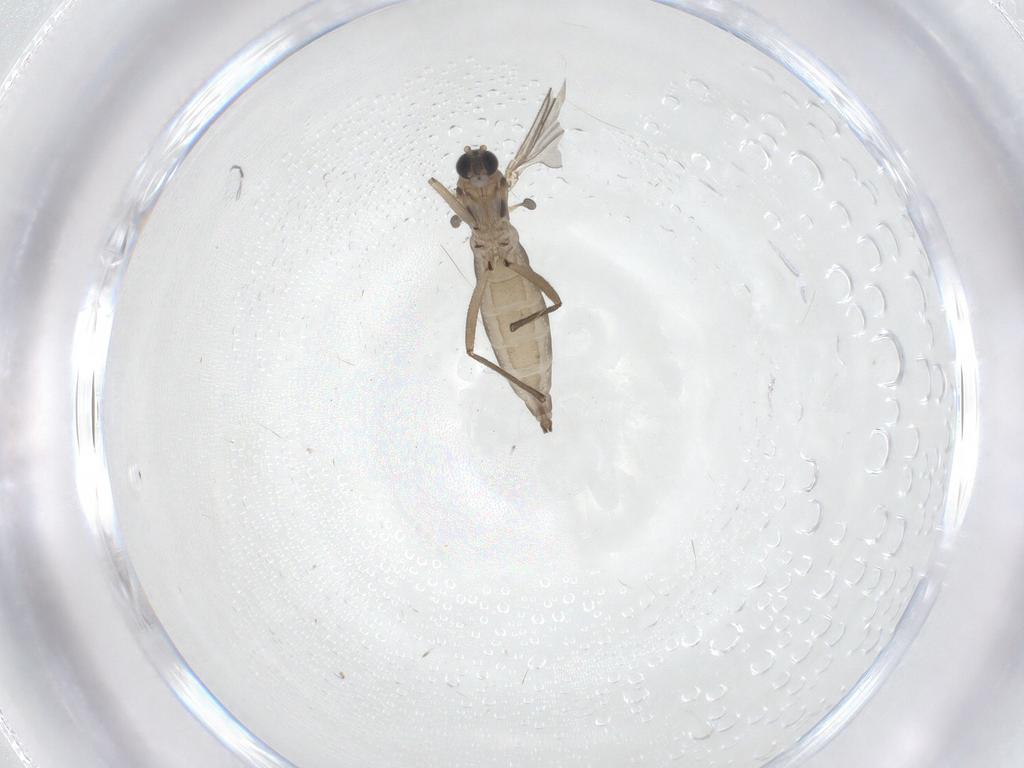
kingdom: Animalia
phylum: Arthropoda
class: Insecta
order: Diptera
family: Sciaridae
